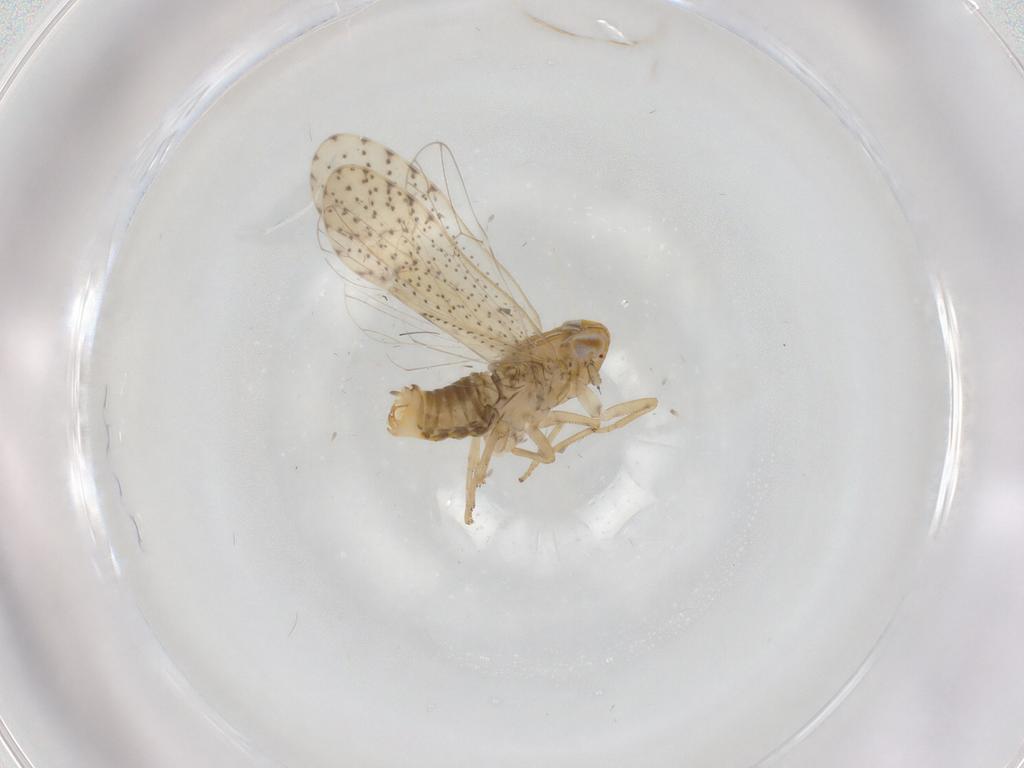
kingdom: Animalia
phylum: Arthropoda
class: Insecta
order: Hemiptera
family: Delphacidae
